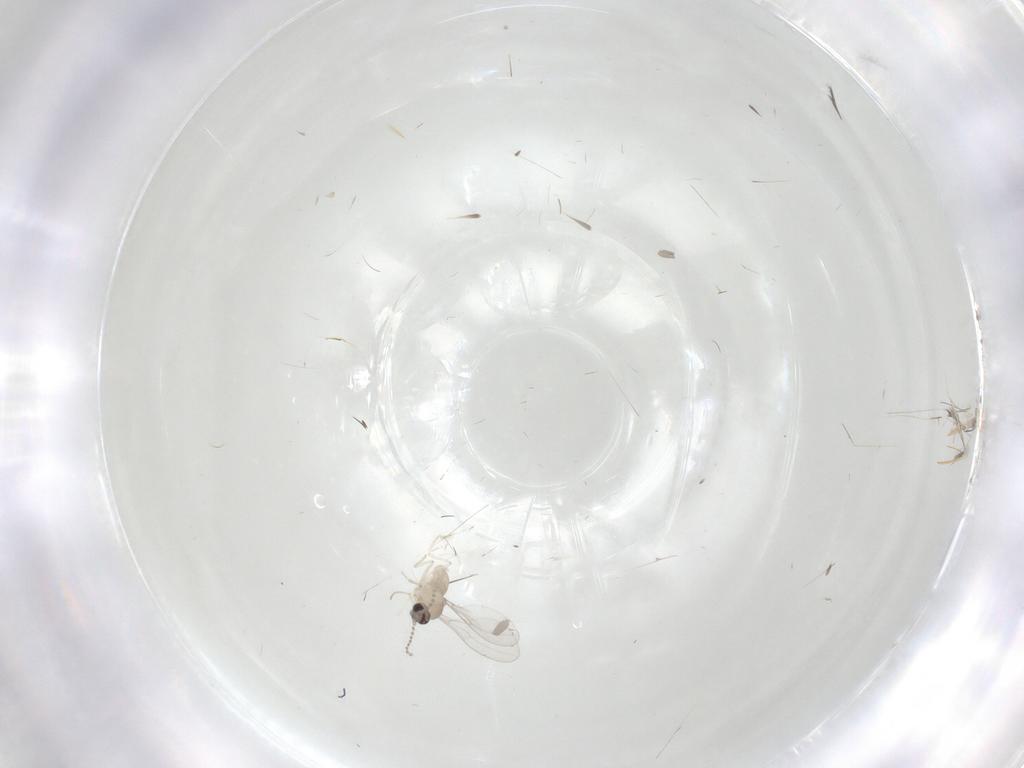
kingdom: Animalia
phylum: Arthropoda
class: Insecta
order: Diptera
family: Cecidomyiidae
